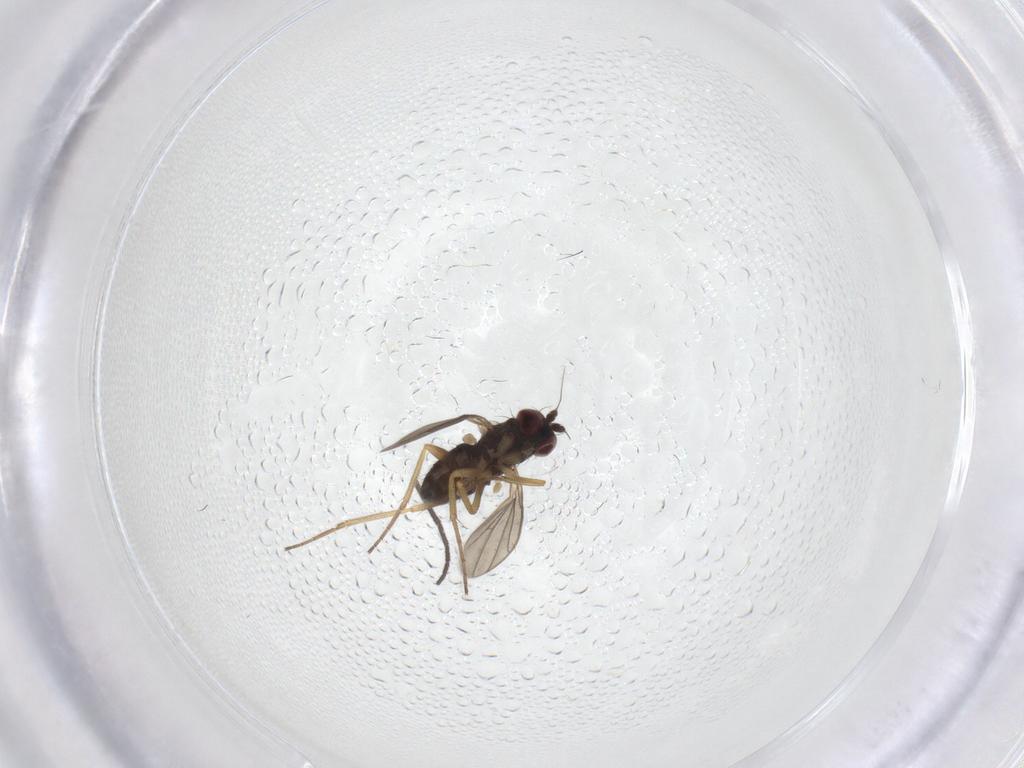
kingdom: Animalia
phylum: Arthropoda
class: Insecta
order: Diptera
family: Dolichopodidae
